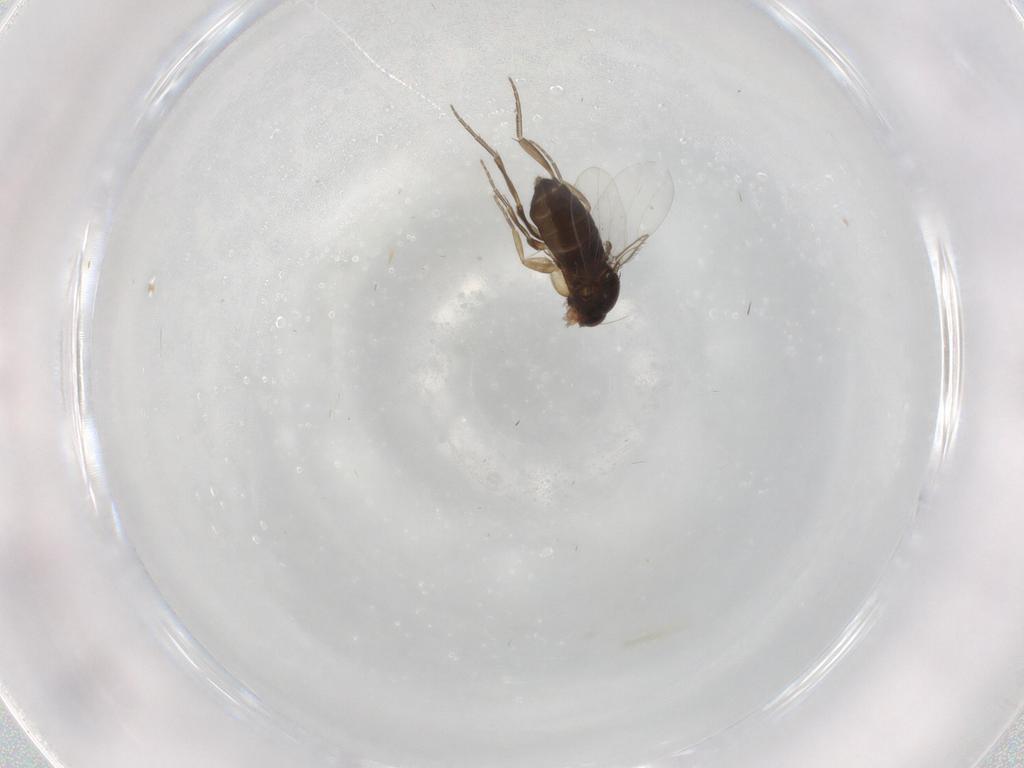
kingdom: Animalia
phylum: Arthropoda
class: Insecta
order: Diptera
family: Phoridae
